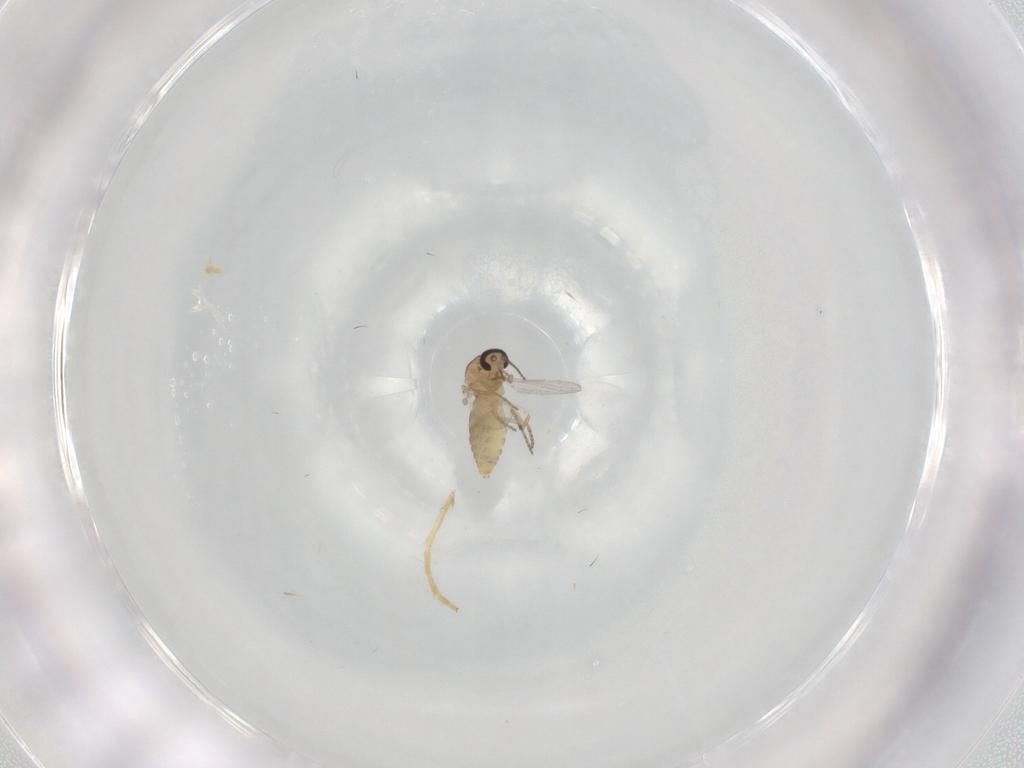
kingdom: Animalia
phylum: Arthropoda
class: Insecta
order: Diptera
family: Ceratopogonidae
